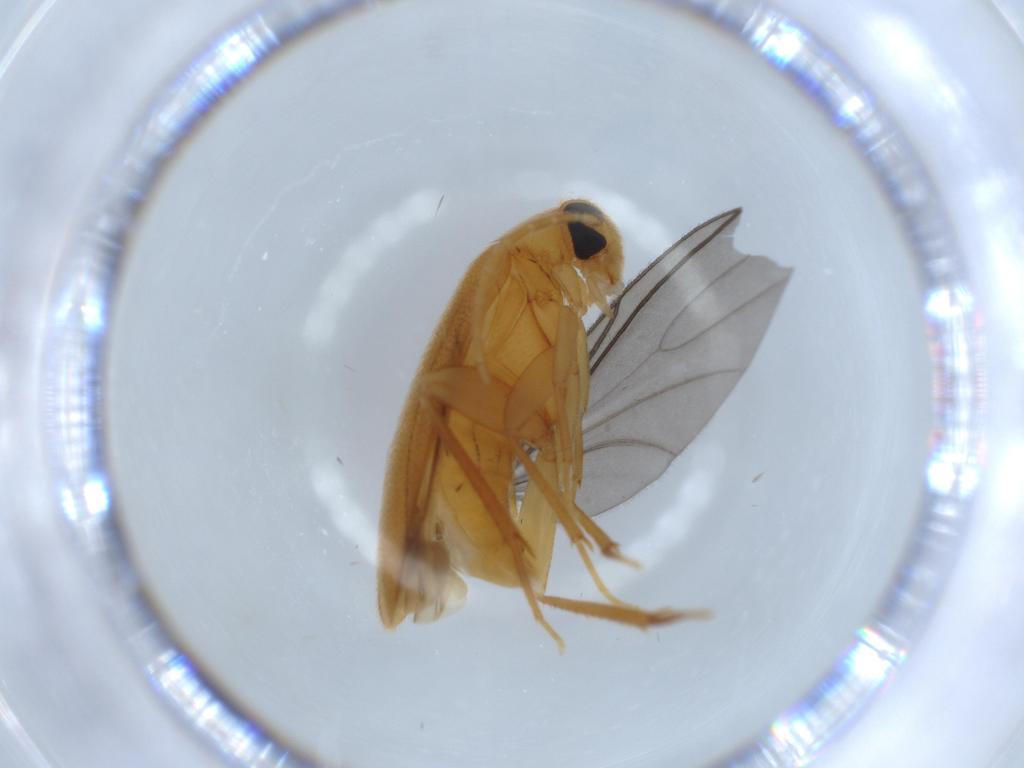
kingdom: Animalia
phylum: Arthropoda
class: Insecta
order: Coleoptera
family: Scraptiidae
